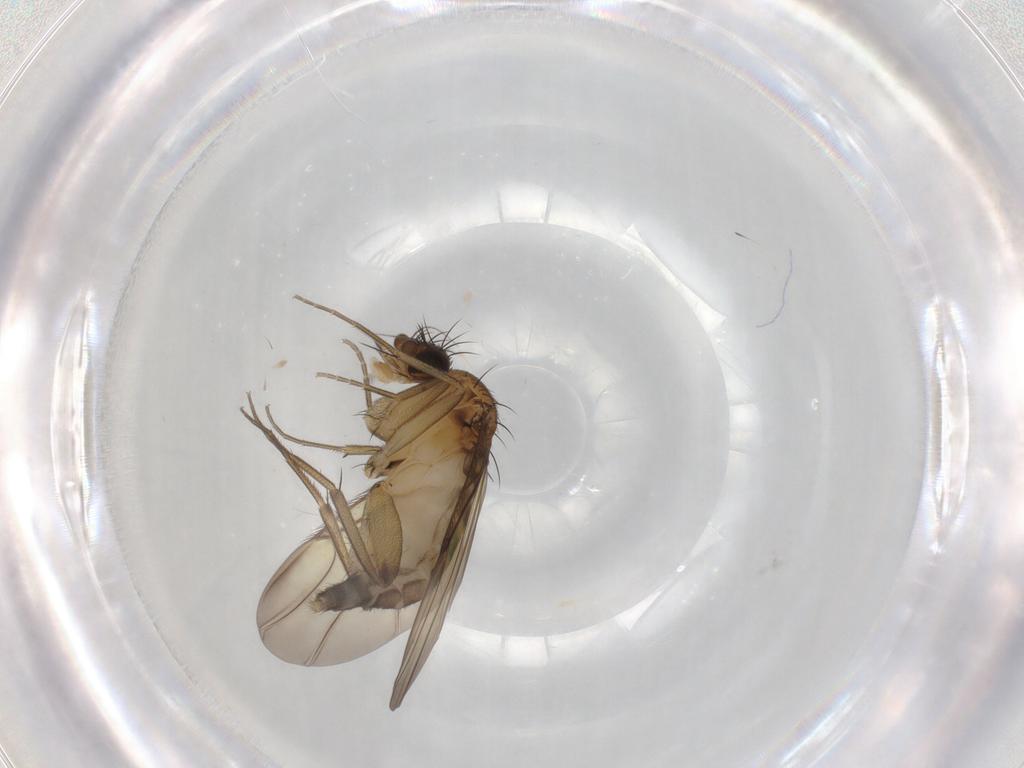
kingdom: Animalia
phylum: Arthropoda
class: Insecta
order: Diptera
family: Phoridae
